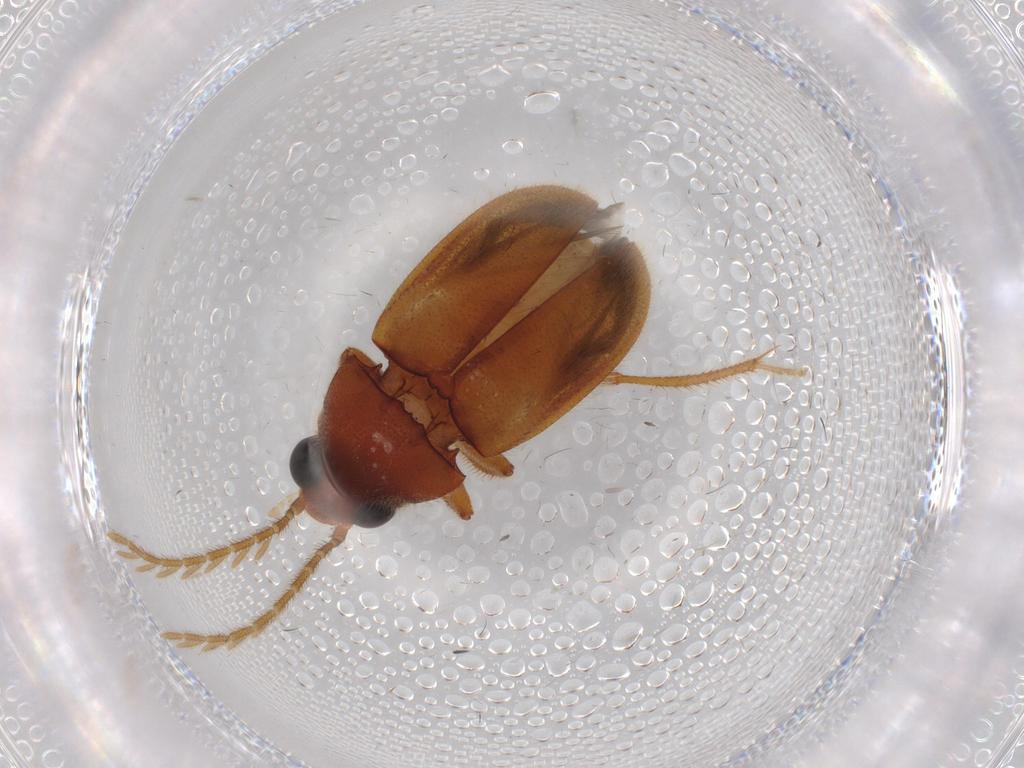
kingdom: Animalia
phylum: Arthropoda
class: Insecta
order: Coleoptera
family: Ptilodactylidae
